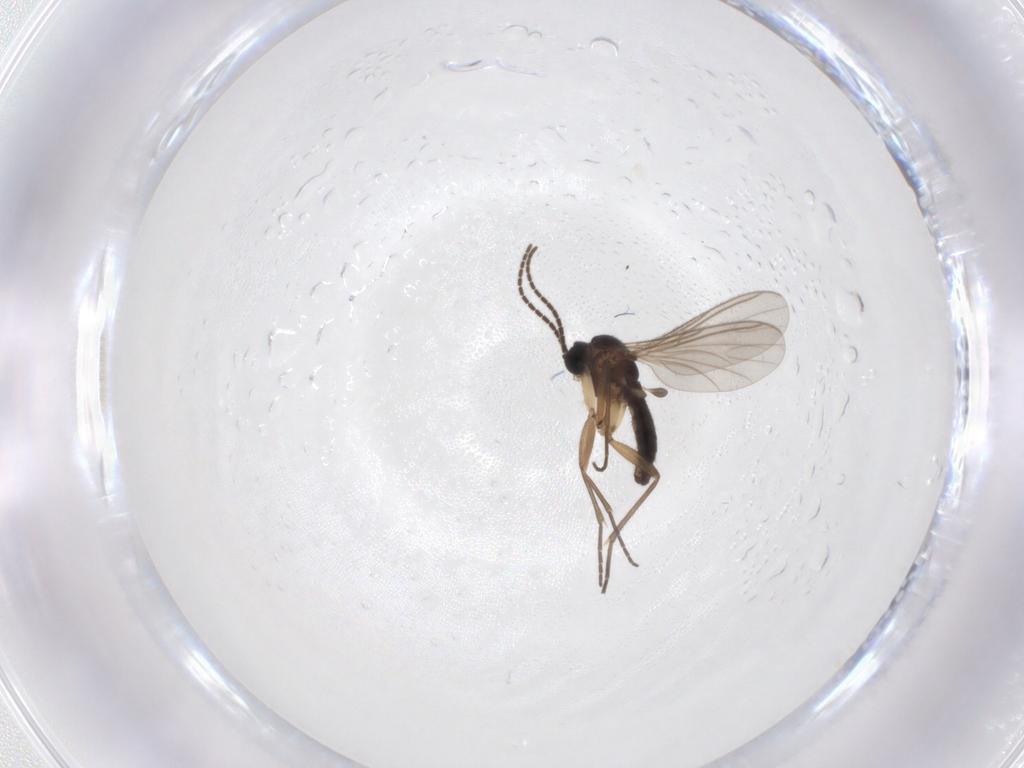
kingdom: Animalia
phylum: Arthropoda
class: Insecta
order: Diptera
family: Sciaridae
